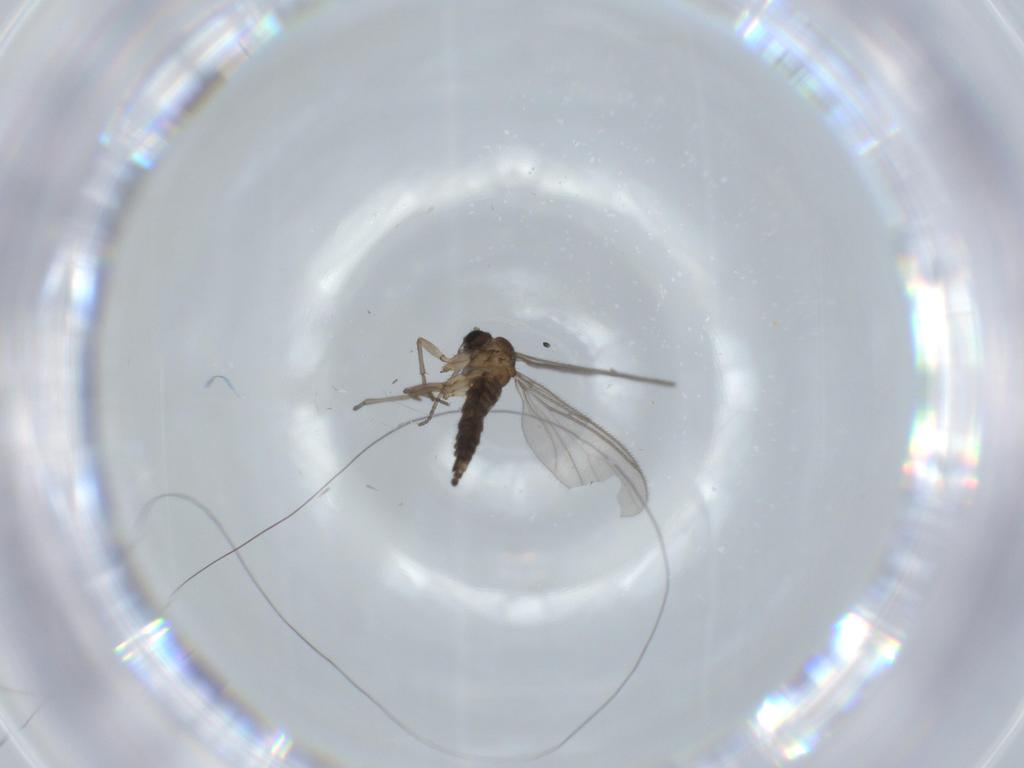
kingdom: Animalia
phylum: Arthropoda
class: Insecta
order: Diptera
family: Sciaridae
